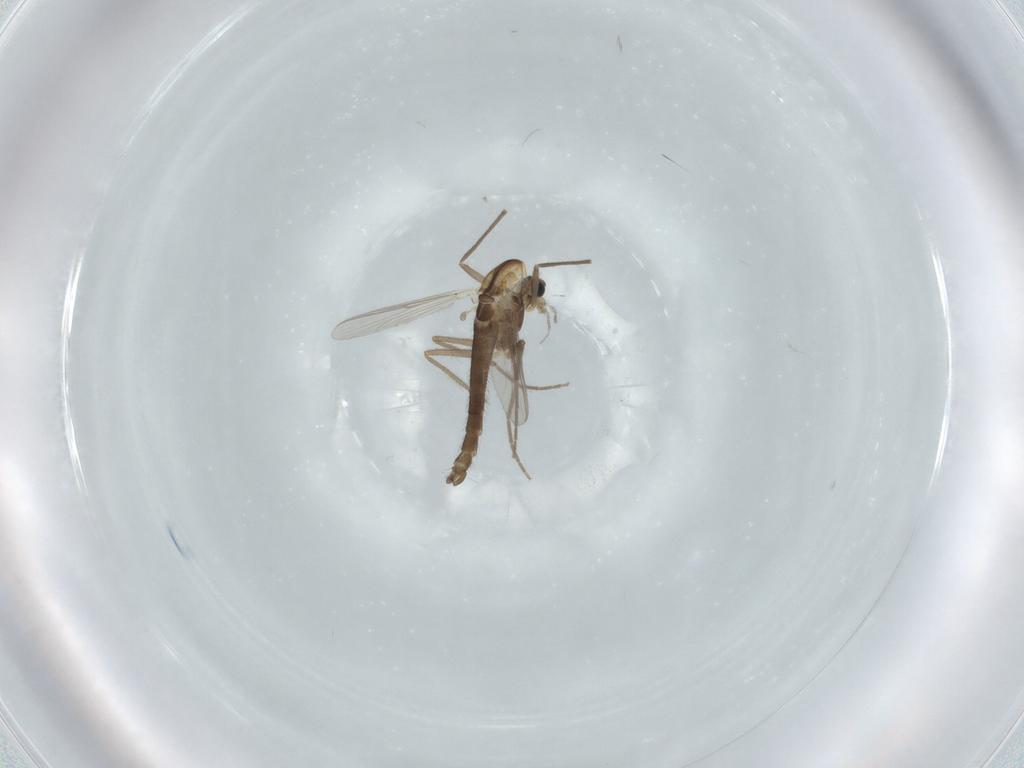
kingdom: Animalia
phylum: Arthropoda
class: Insecta
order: Diptera
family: Chironomidae
